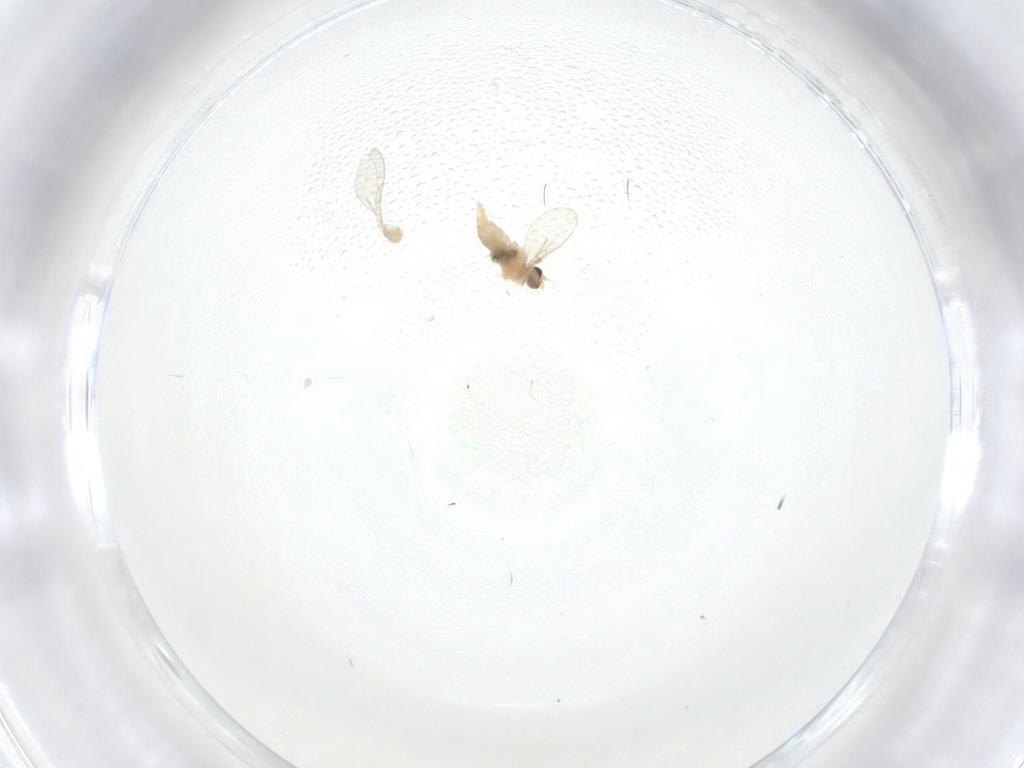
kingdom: Animalia
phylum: Arthropoda
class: Insecta
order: Diptera
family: Cecidomyiidae
